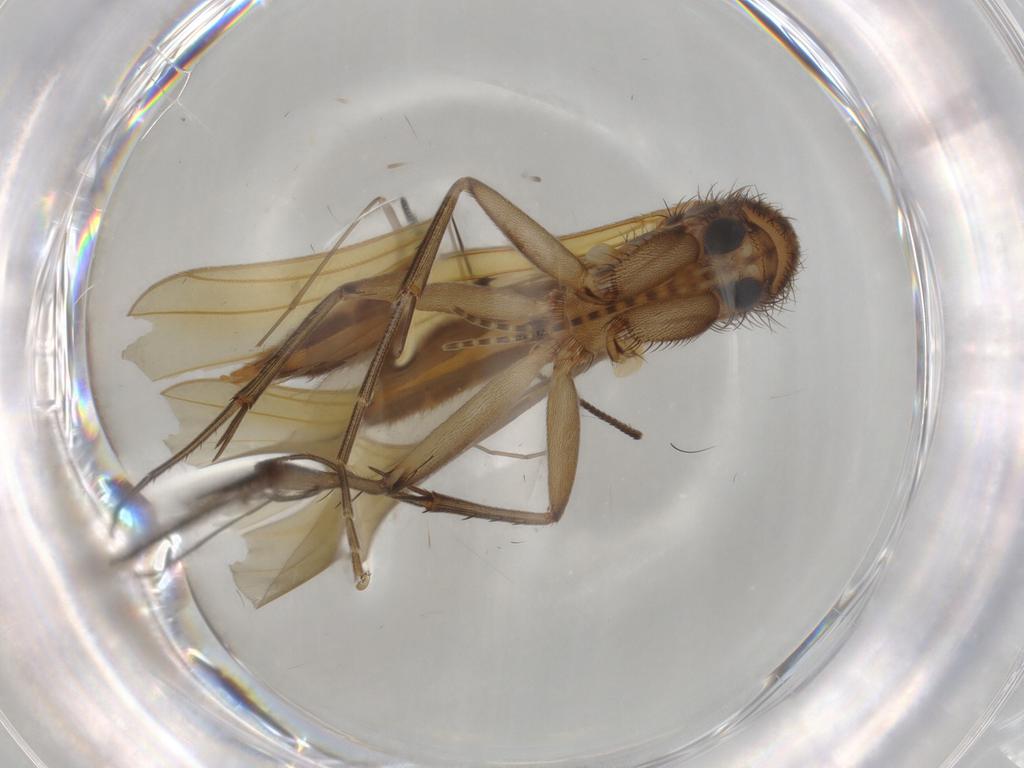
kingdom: Animalia
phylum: Arthropoda
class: Insecta
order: Diptera
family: Cecidomyiidae
